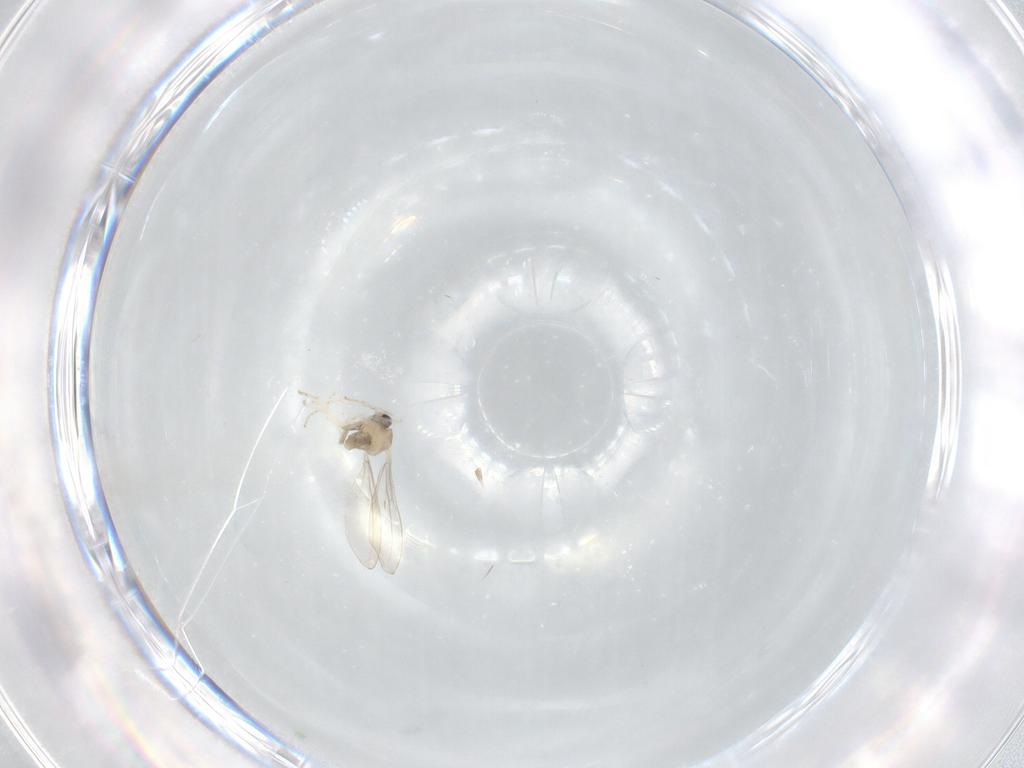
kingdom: Animalia
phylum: Arthropoda
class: Insecta
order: Diptera
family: Cecidomyiidae
